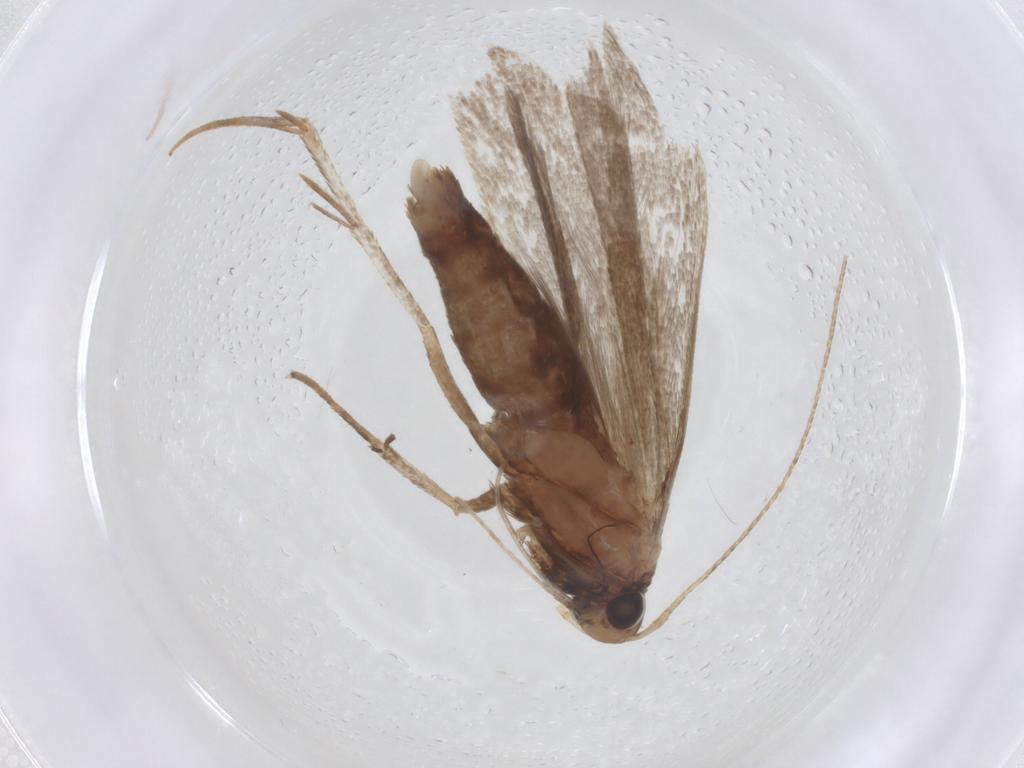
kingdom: Animalia
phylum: Arthropoda
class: Insecta
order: Lepidoptera
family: Gelechiidae
